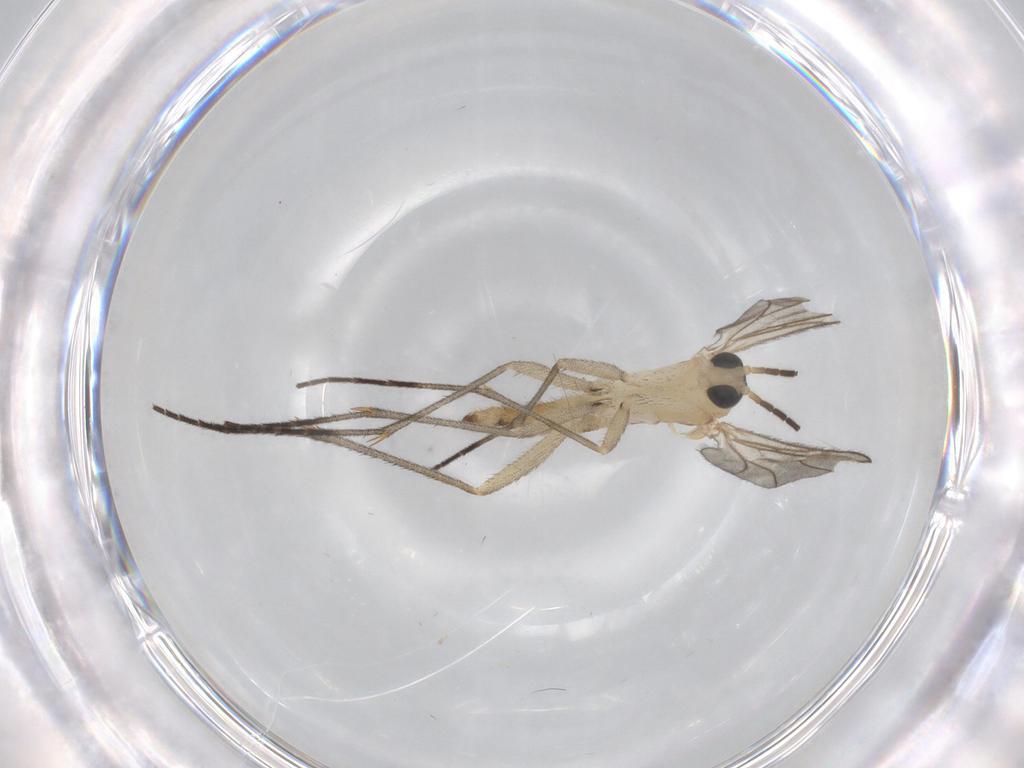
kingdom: Animalia
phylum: Arthropoda
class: Insecta
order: Diptera
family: Sciaridae
